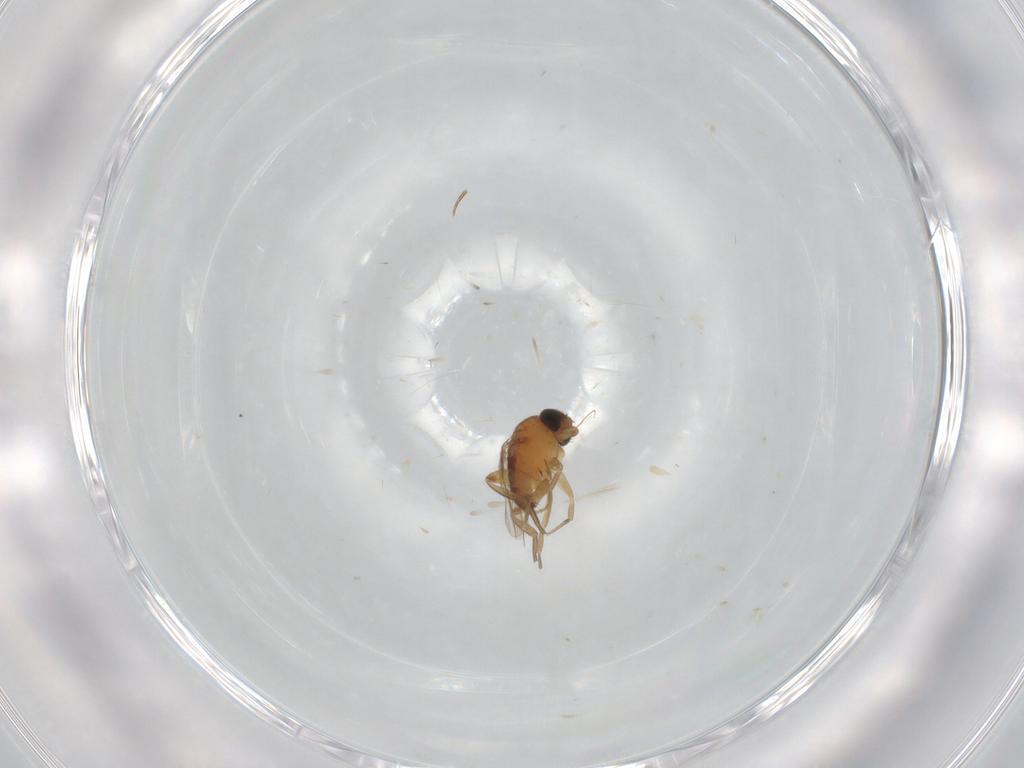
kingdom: Animalia
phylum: Arthropoda
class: Insecta
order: Diptera
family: Phoridae
